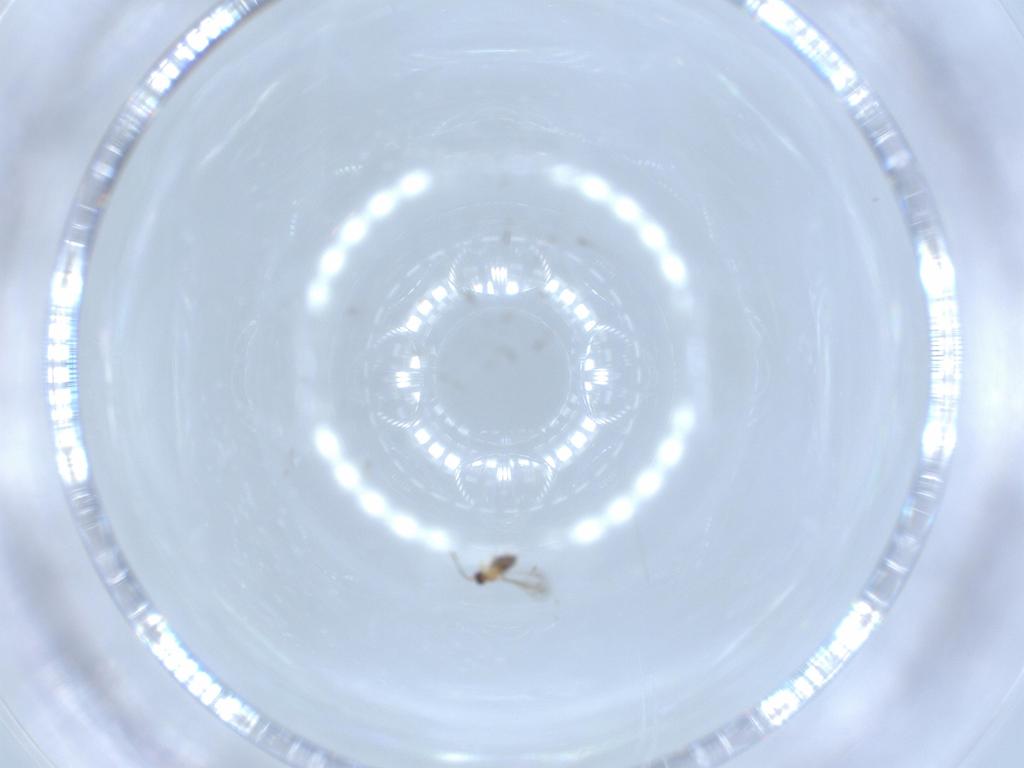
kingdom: Animalia
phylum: Arthropoda
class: Insecta
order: Hymenoptera
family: Mymaridae
